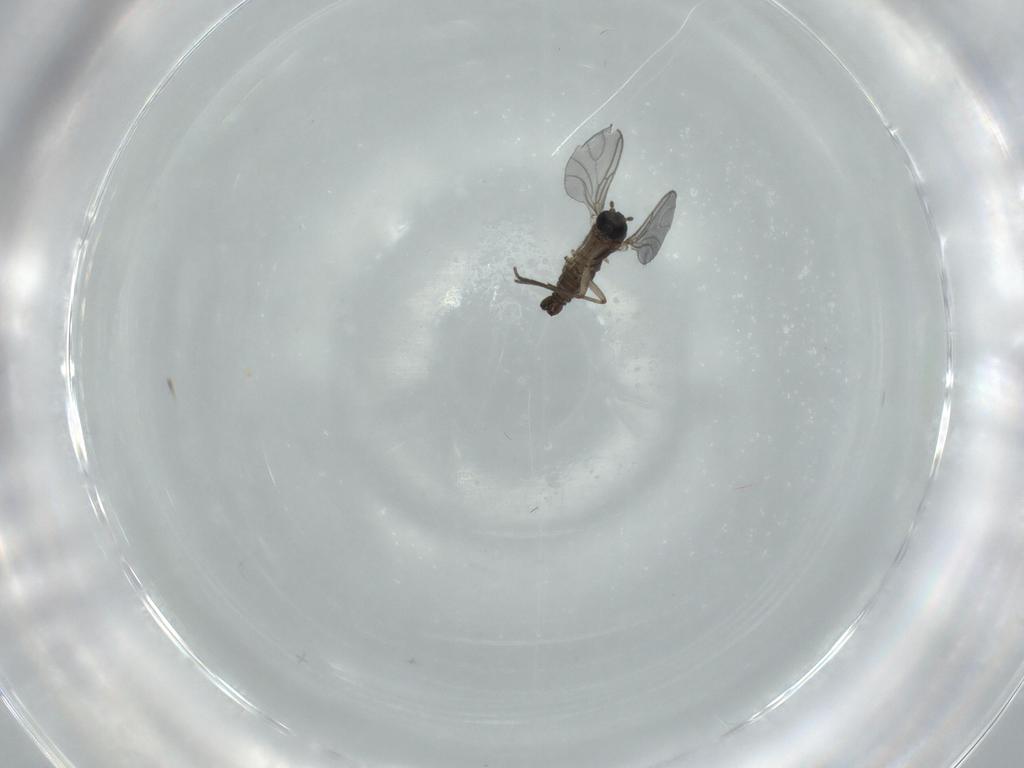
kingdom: Animalia
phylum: Arthropoda
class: Insecta
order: Diptera
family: Sciaridae
